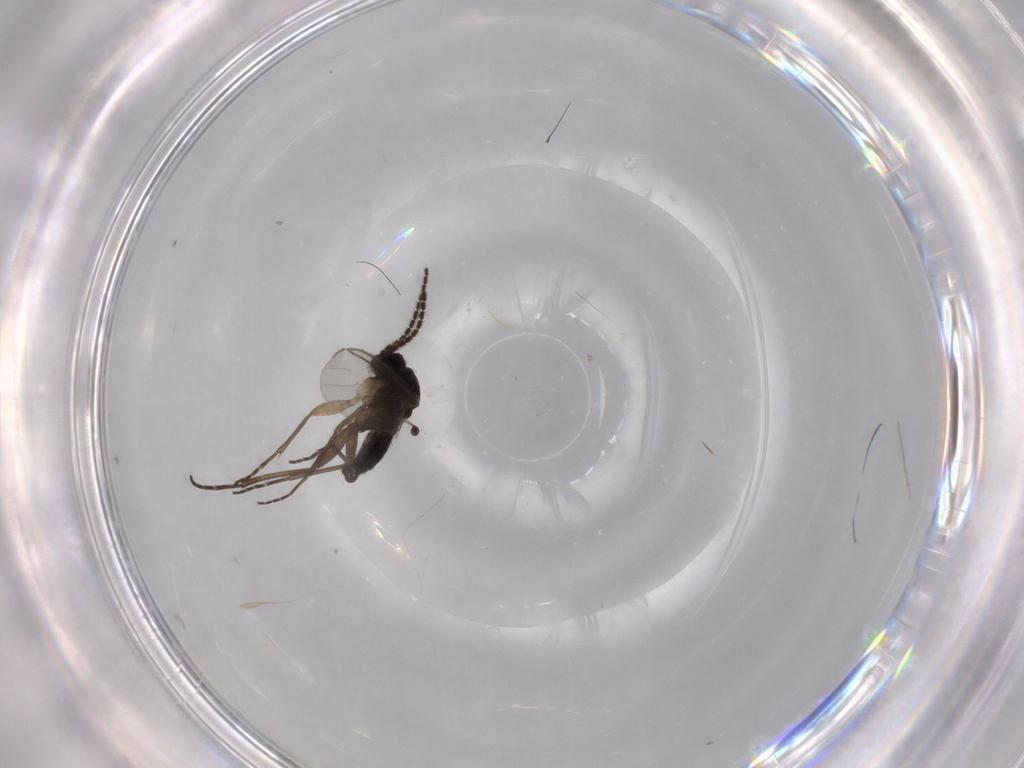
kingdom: Animalia
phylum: Arthropoda
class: Insecta
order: Diptera
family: Sciaridae
